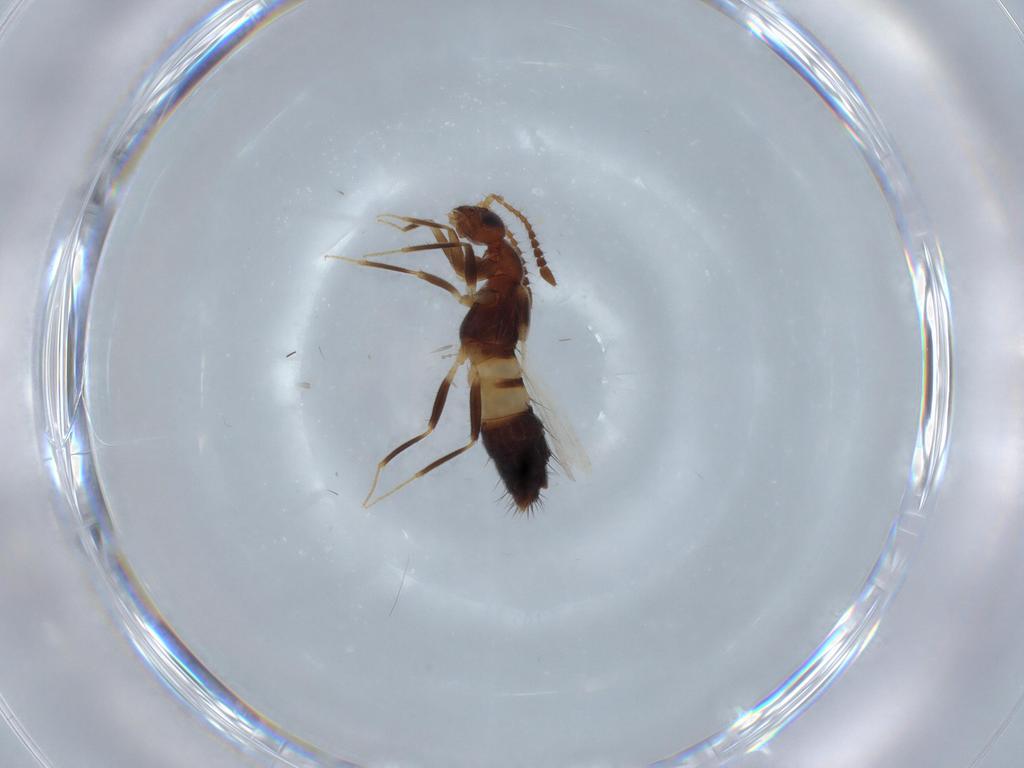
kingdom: Animalia
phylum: Arthropoda
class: Insecta
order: Coleoptera
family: Staphylinidae
